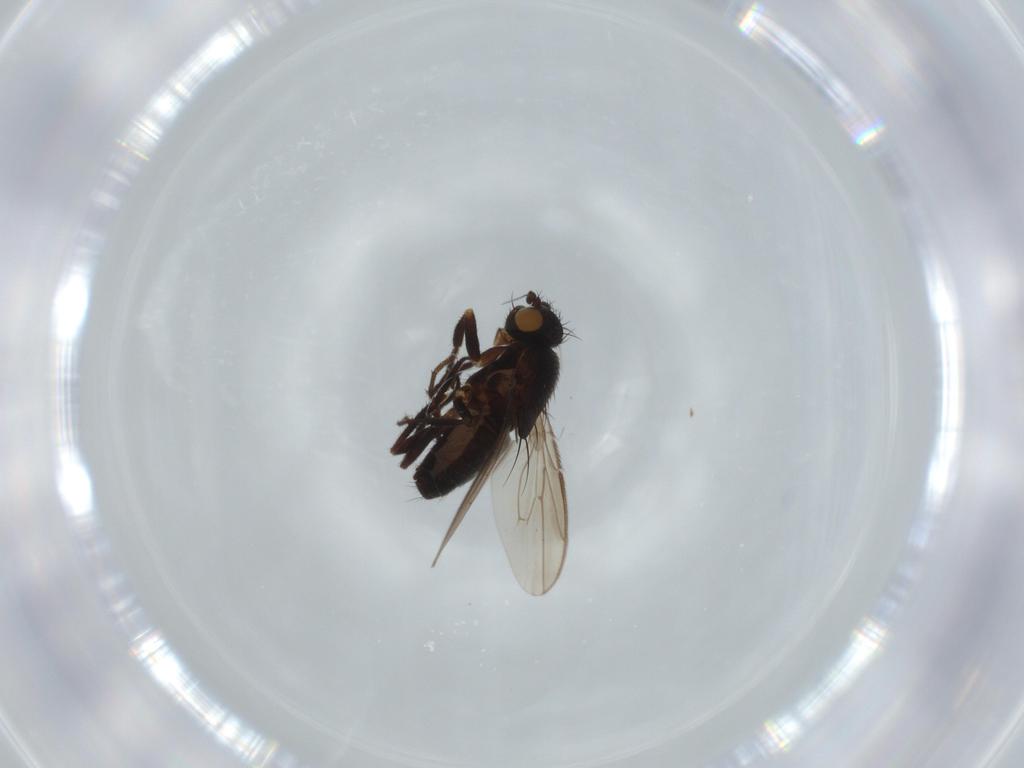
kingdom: Animalia
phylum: Arthropoda
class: Insecta
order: Diptera
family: Sphaeroceridae
